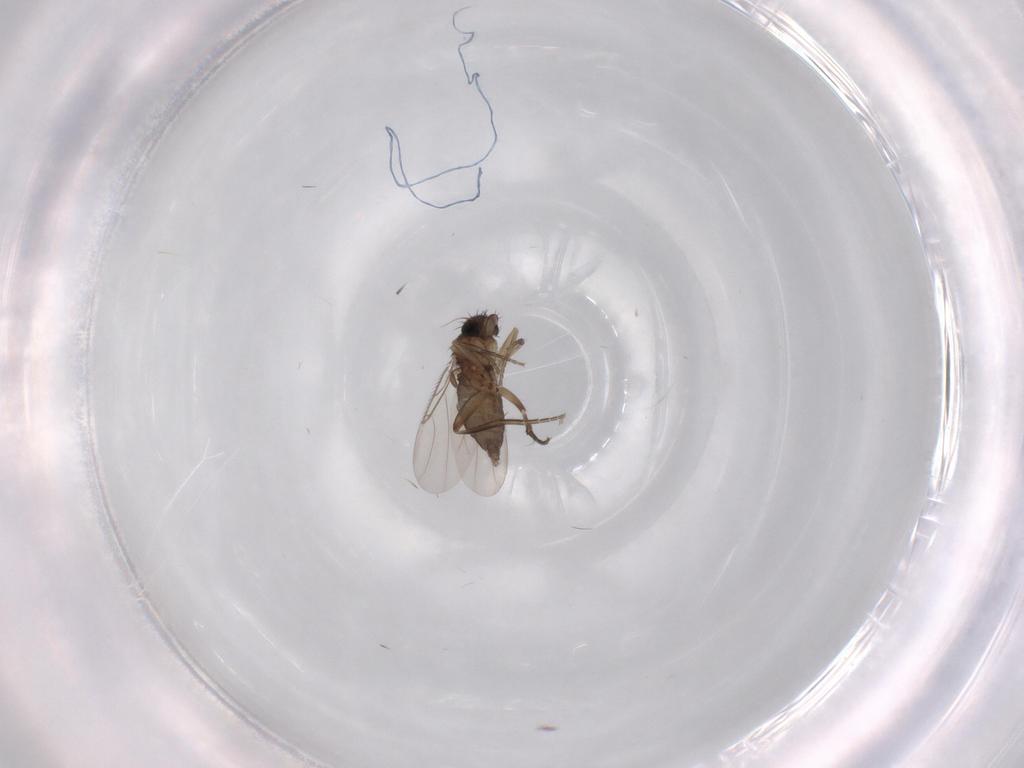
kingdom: Animalia
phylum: Arthropoda
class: Insecta
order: Diptera
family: Phoridae
